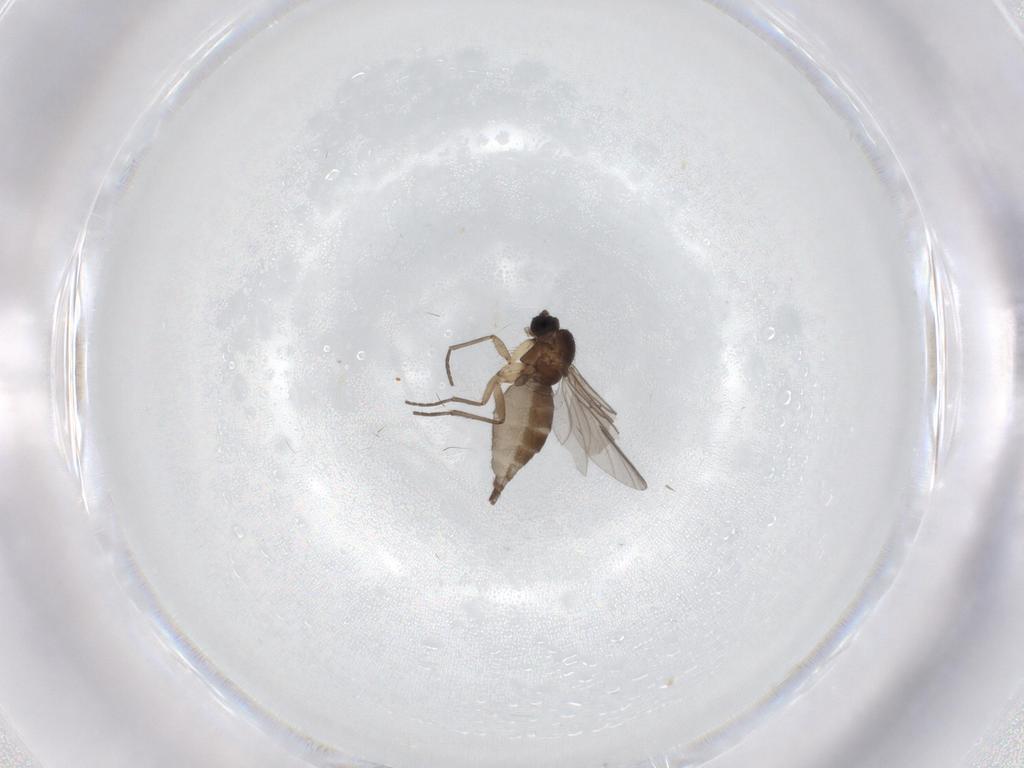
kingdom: Animalia
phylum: Arthropoda
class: Insecta
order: Diptera
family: Sciaridae
